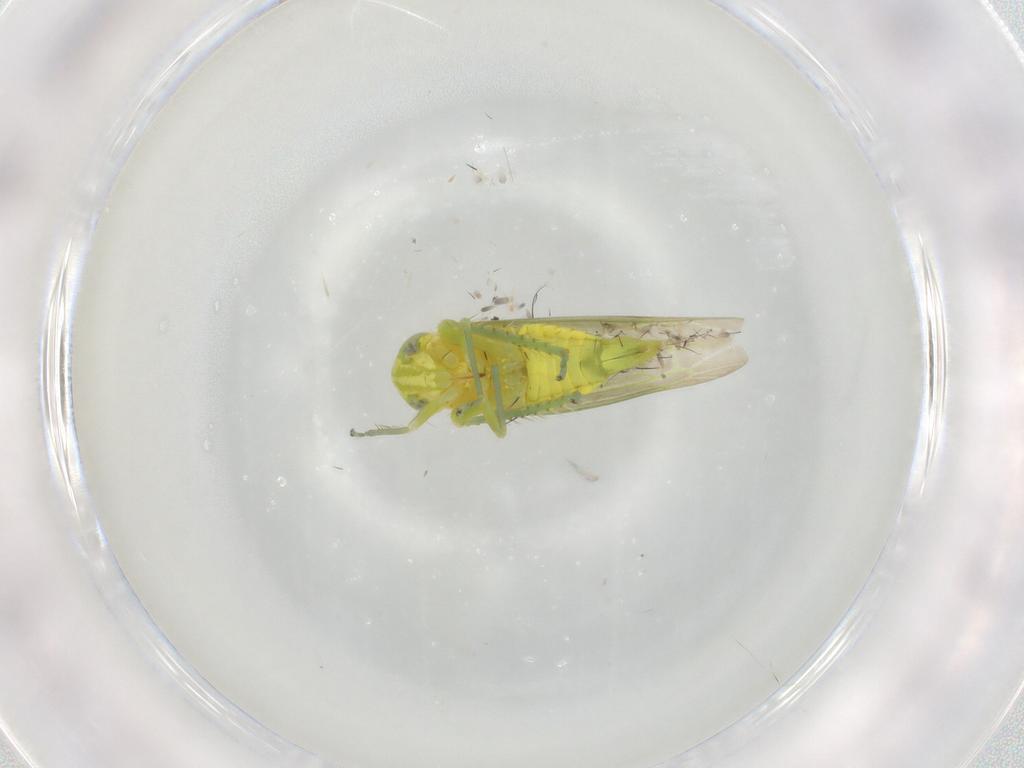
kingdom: Animalia
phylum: Arthropoda
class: Insecta
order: Hemiptera
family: Cicadellidae
